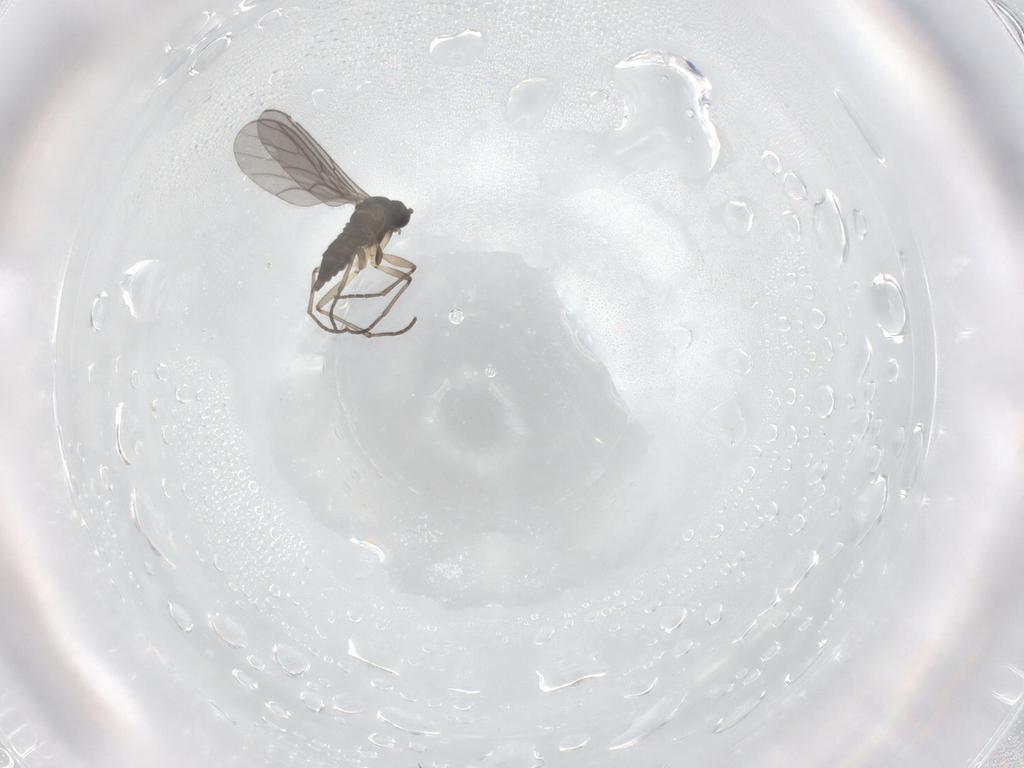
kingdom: Animalia
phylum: Arthropoda
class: Insecta
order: Diptera
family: Sciaridae
